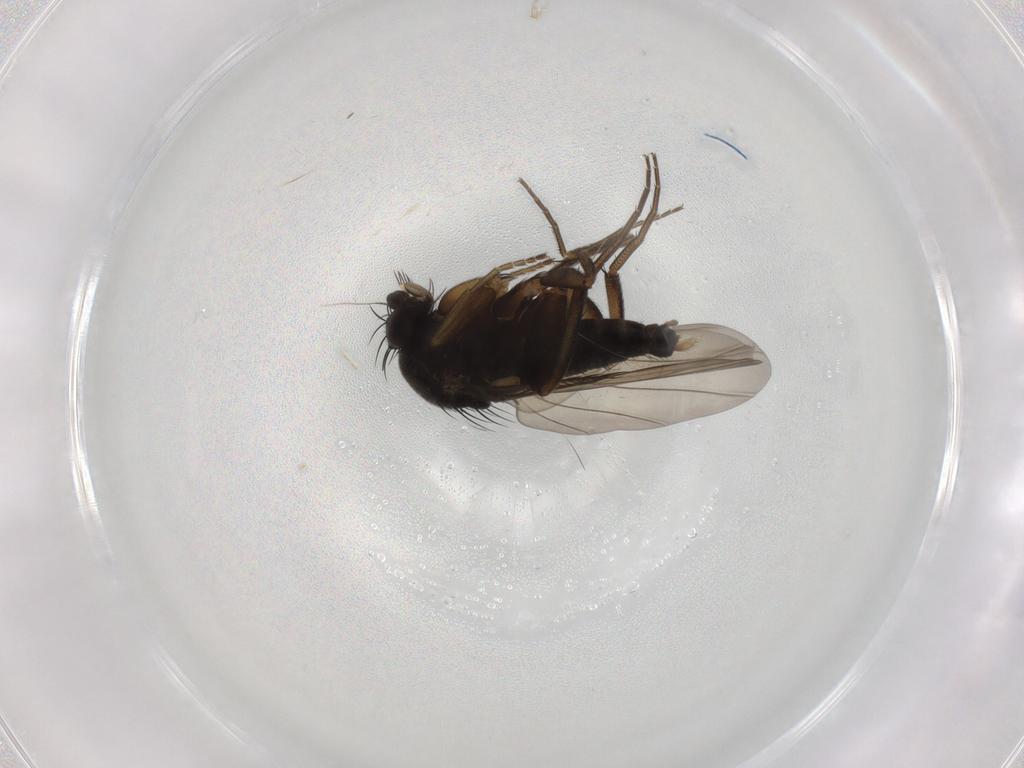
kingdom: Animalia
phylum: Arthropoda
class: Insecta
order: Diptera
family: Phoridae
